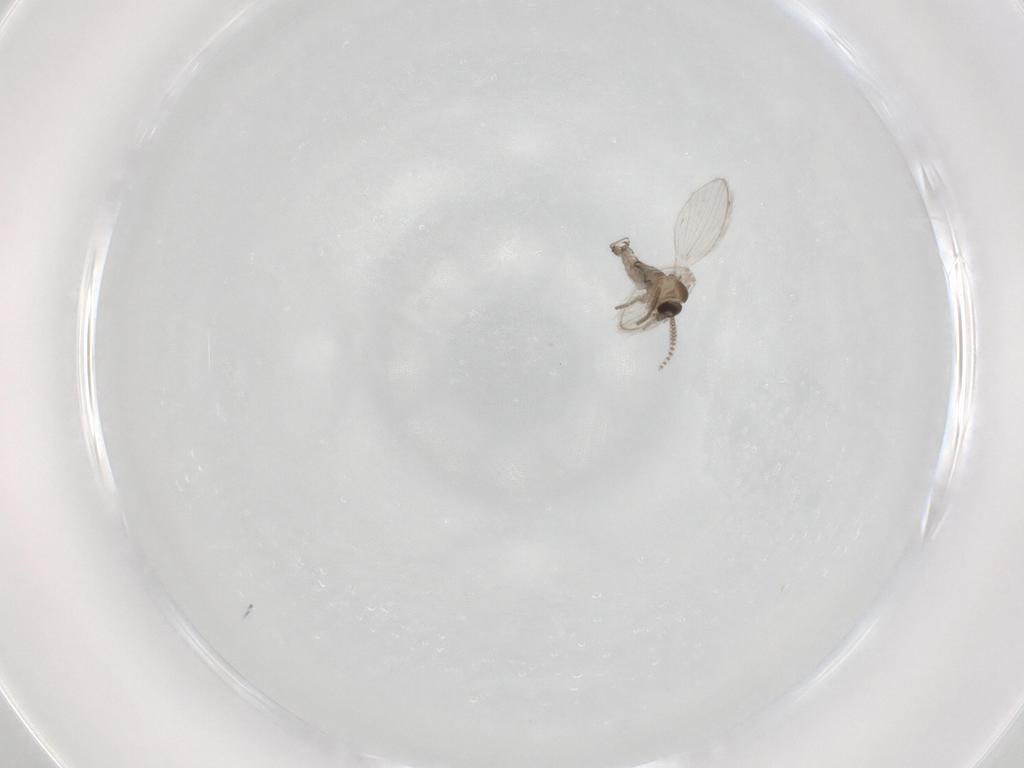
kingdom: Animalia
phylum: Arthropoda
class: Insecta
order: Diptera
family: Psychodidae
